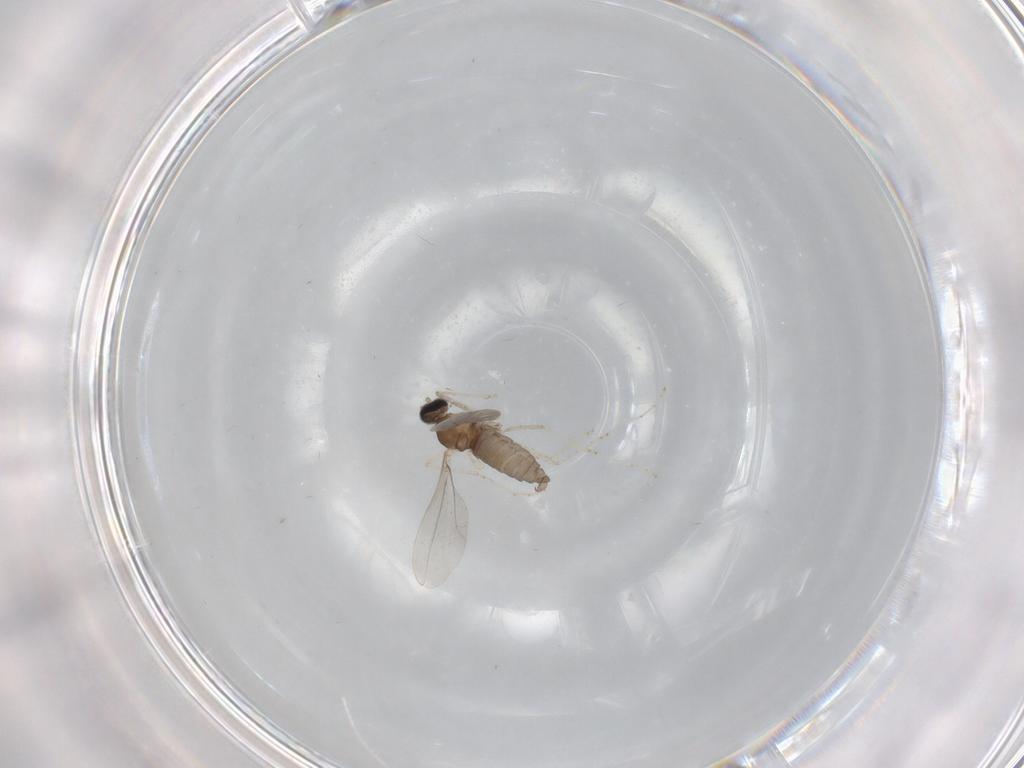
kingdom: Animalia
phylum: Arthropoda
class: Insecta
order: Diptera
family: Cecidomyiidae
